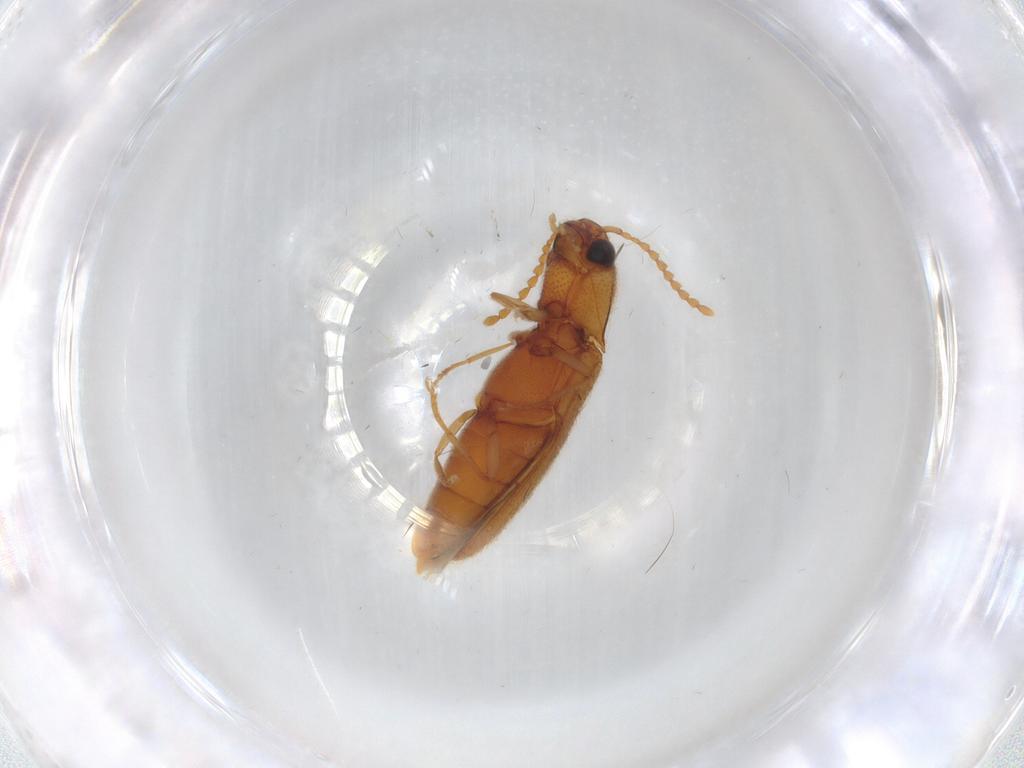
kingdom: Animalia
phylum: Arthropoda
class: Insecta
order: Coleoptera
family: Elateridae
